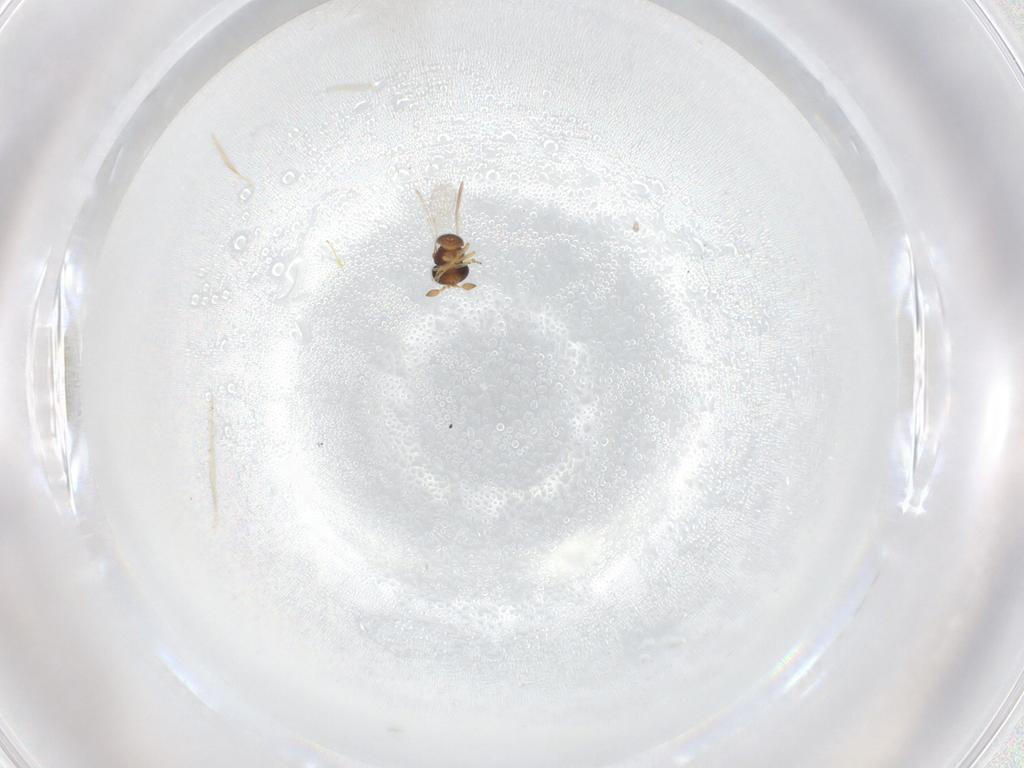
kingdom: Animalia
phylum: Arthropoda
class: Insecta
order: Hymenoptera
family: Scelionidae
